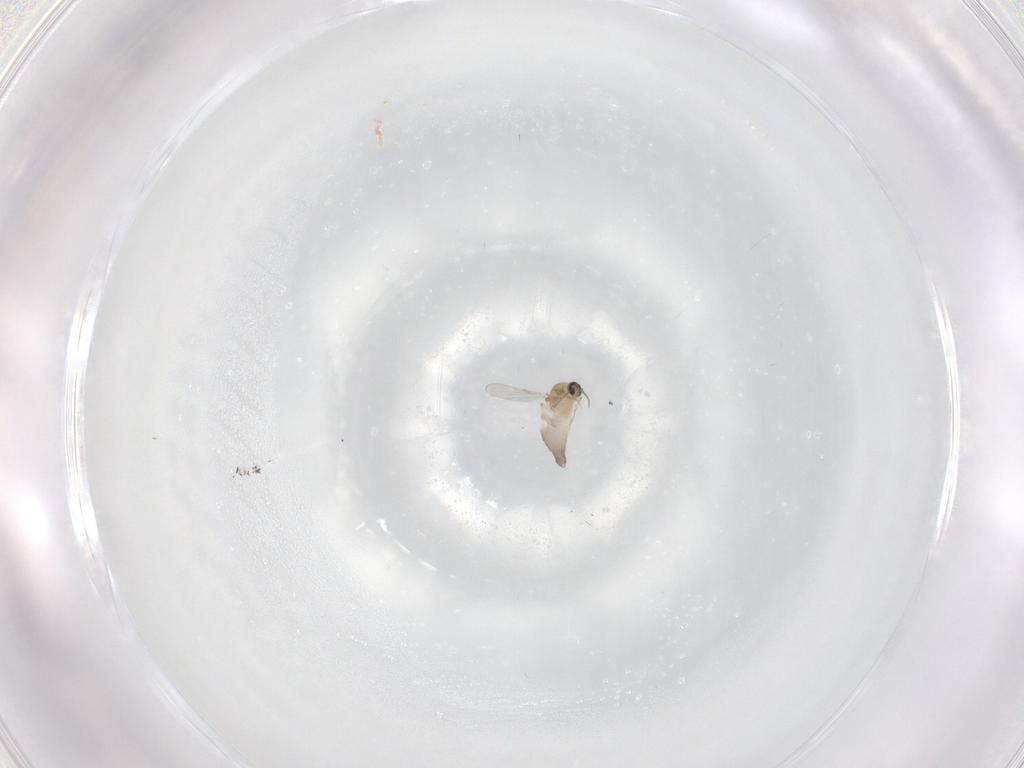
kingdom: Animalia
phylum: Arthropoda
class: Insecta
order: Diptera
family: Ceratopogonidae
